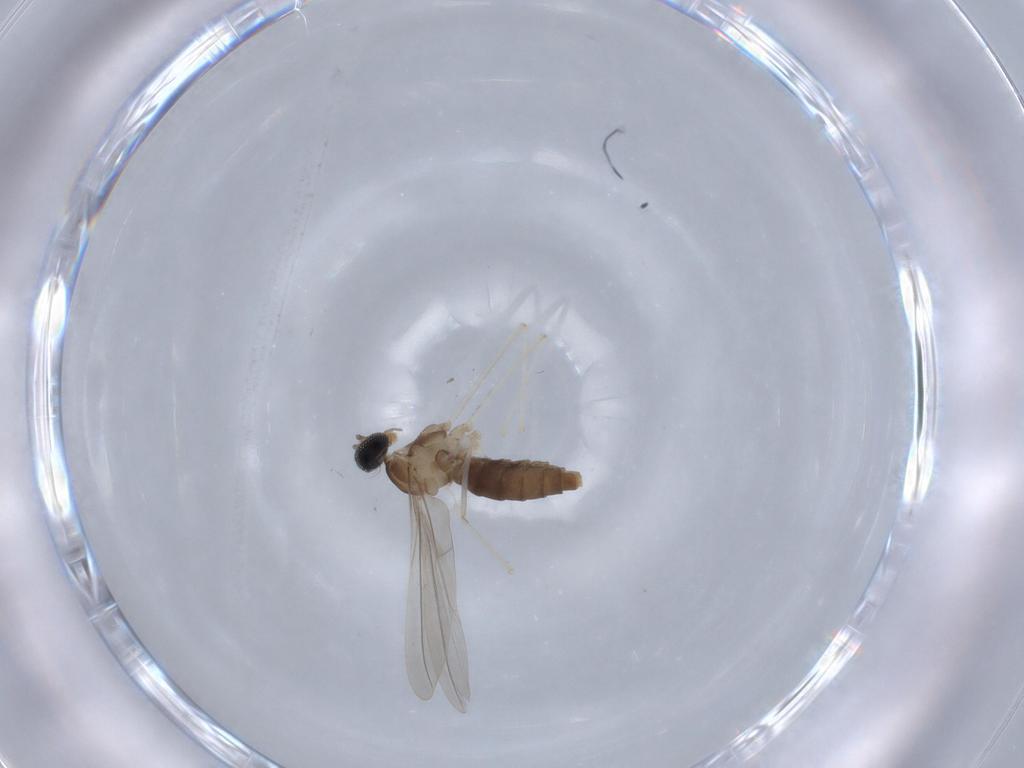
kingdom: Animalia
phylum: Arthropoda
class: Insecta
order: Diptera
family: Cecidomyiidae
